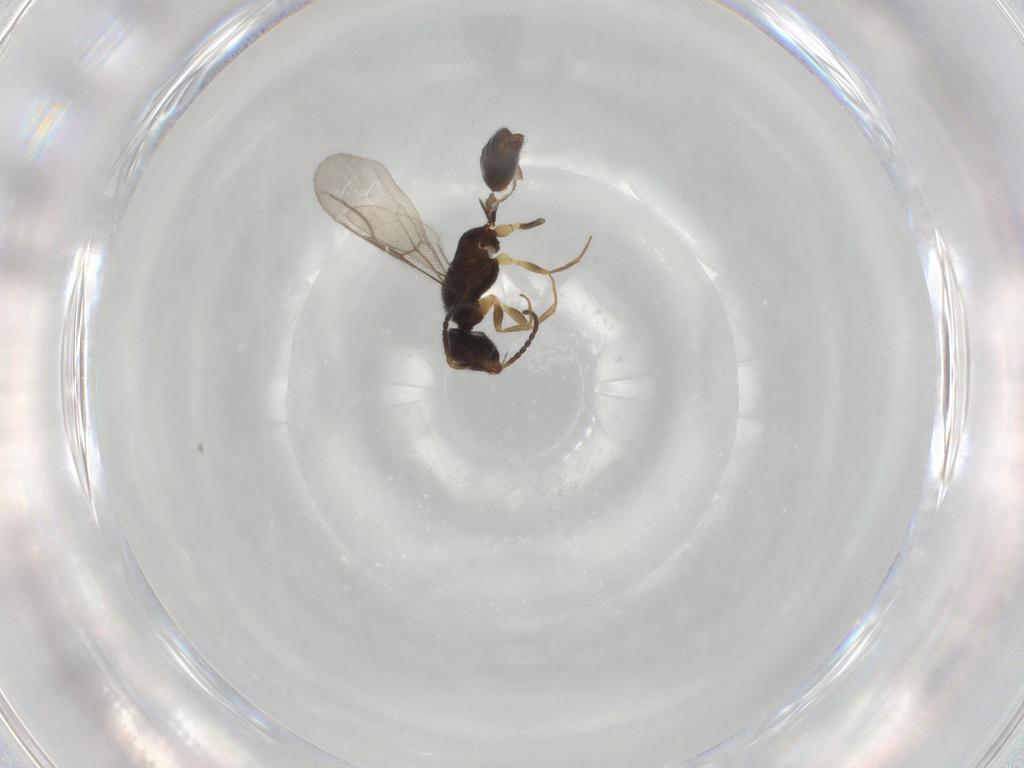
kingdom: Animalia
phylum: Arthropoda
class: Insecta
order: Hymenoptera
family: Bethylidae
